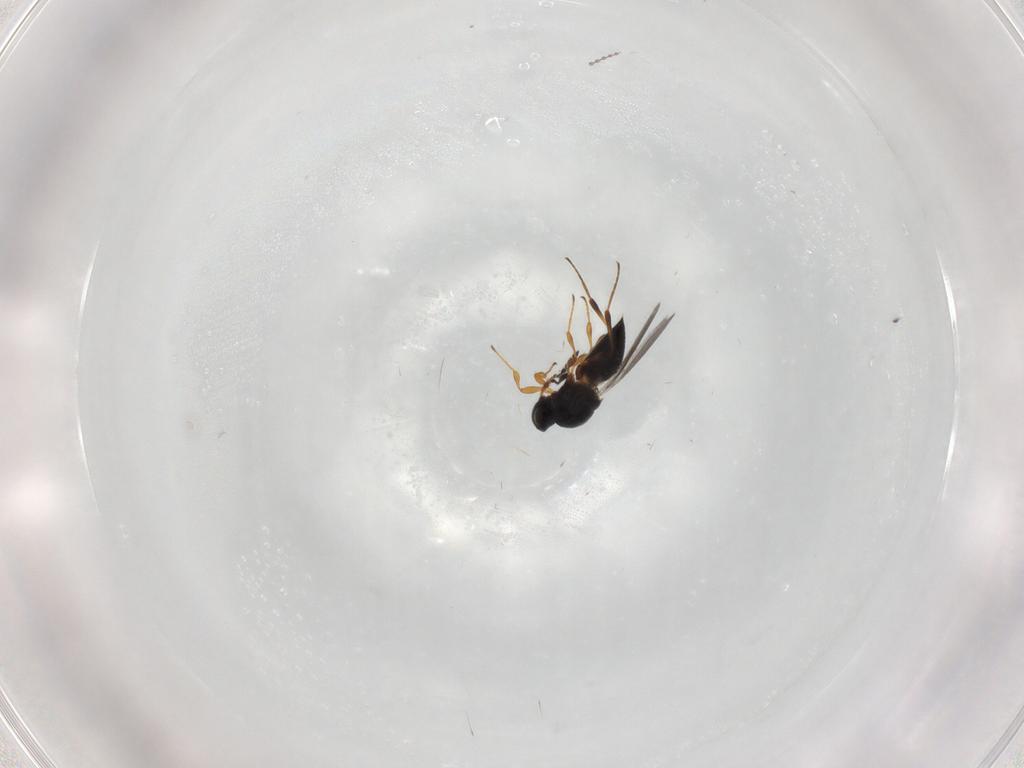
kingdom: Animalia
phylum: Arthropoda
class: Insecta
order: Hymenoptera
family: Platygastridae
